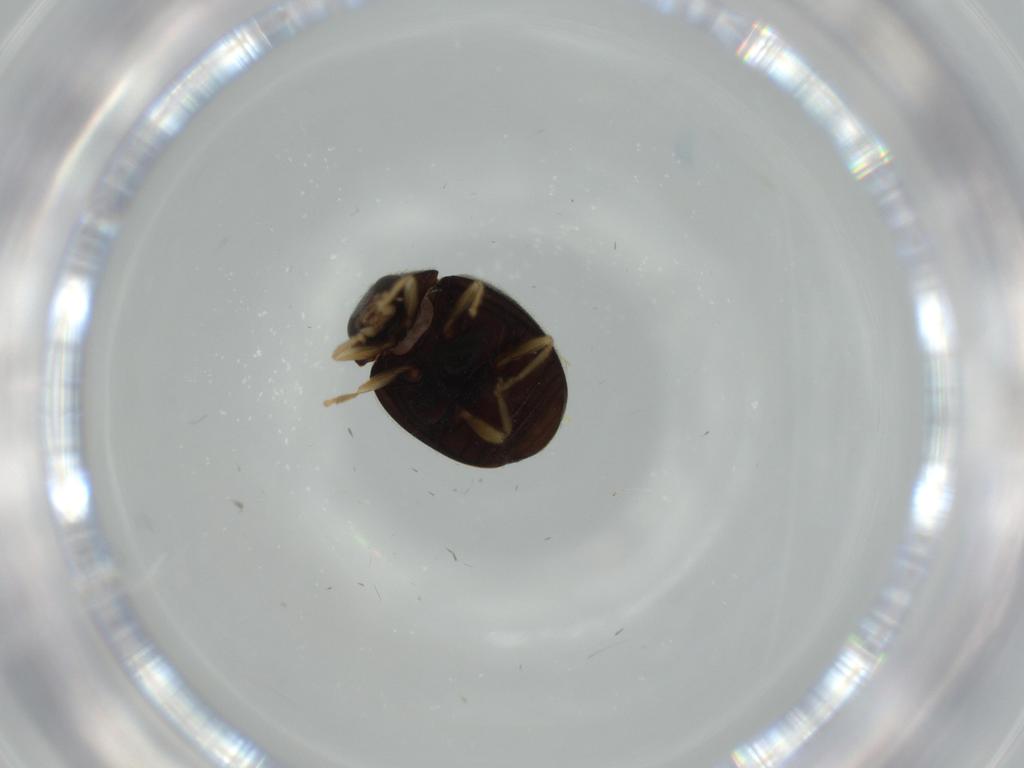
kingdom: Animalia
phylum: Arthropoda
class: Insecta
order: Coleoptera
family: Coccinellidae
